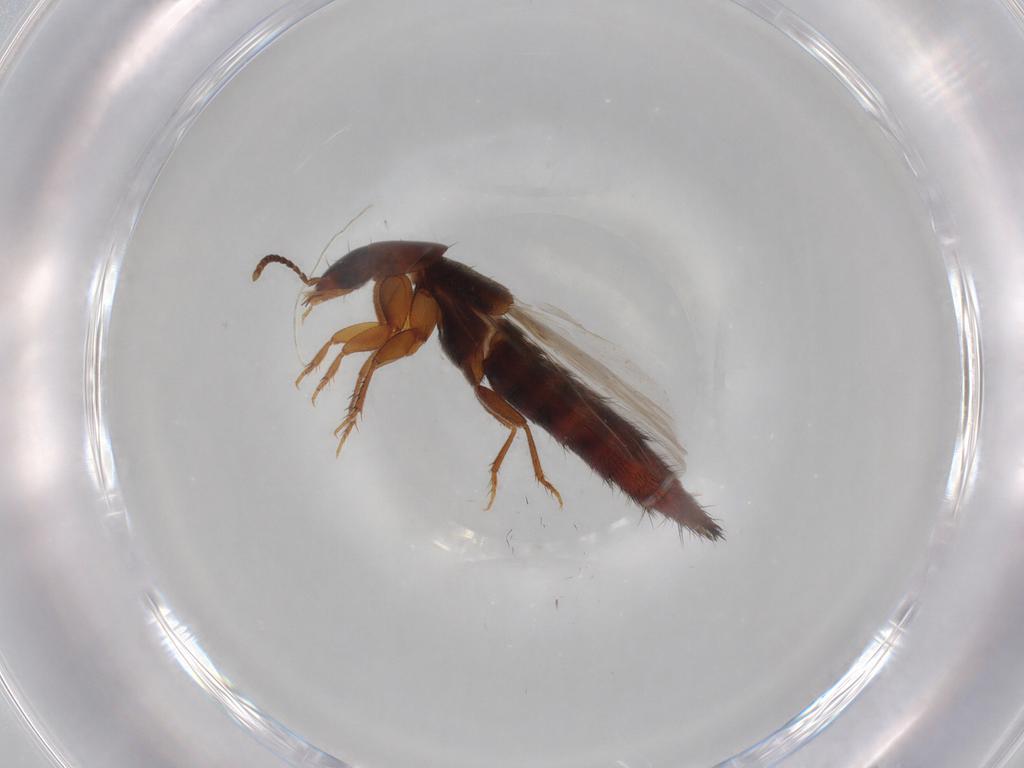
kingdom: Animalia
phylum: Arthropoda
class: Insecta
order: Coleoptera
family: Staphylinidae
